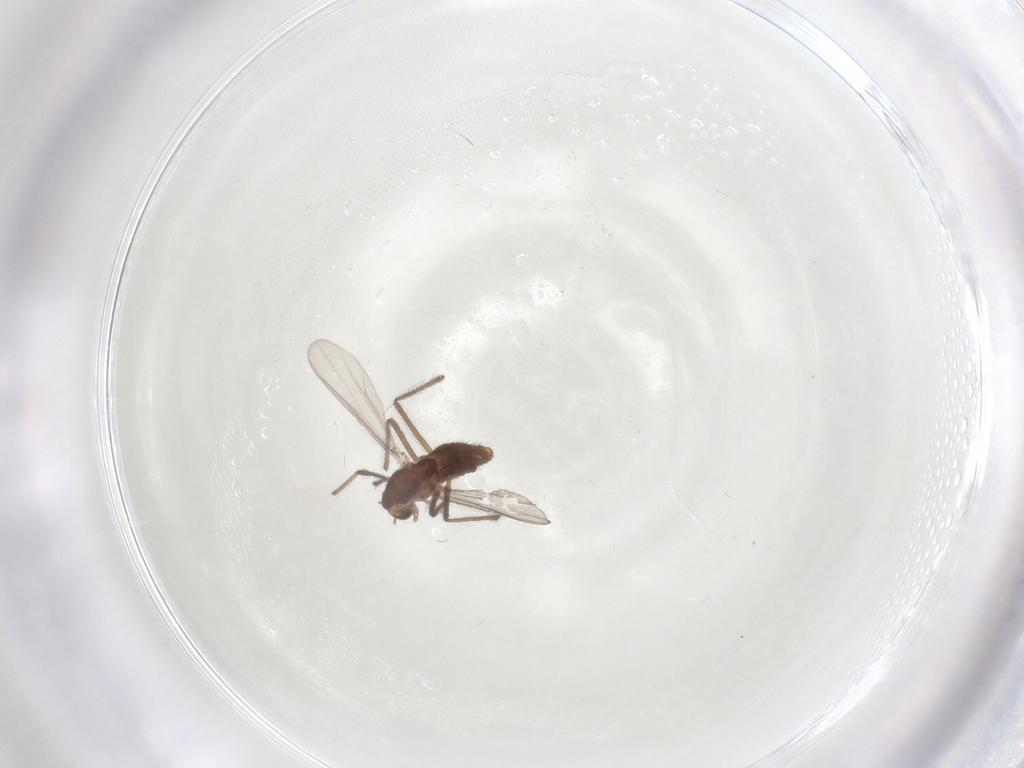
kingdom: Animalia
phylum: Arthropoda
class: Insecta
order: Diptera
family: Chironomidae
